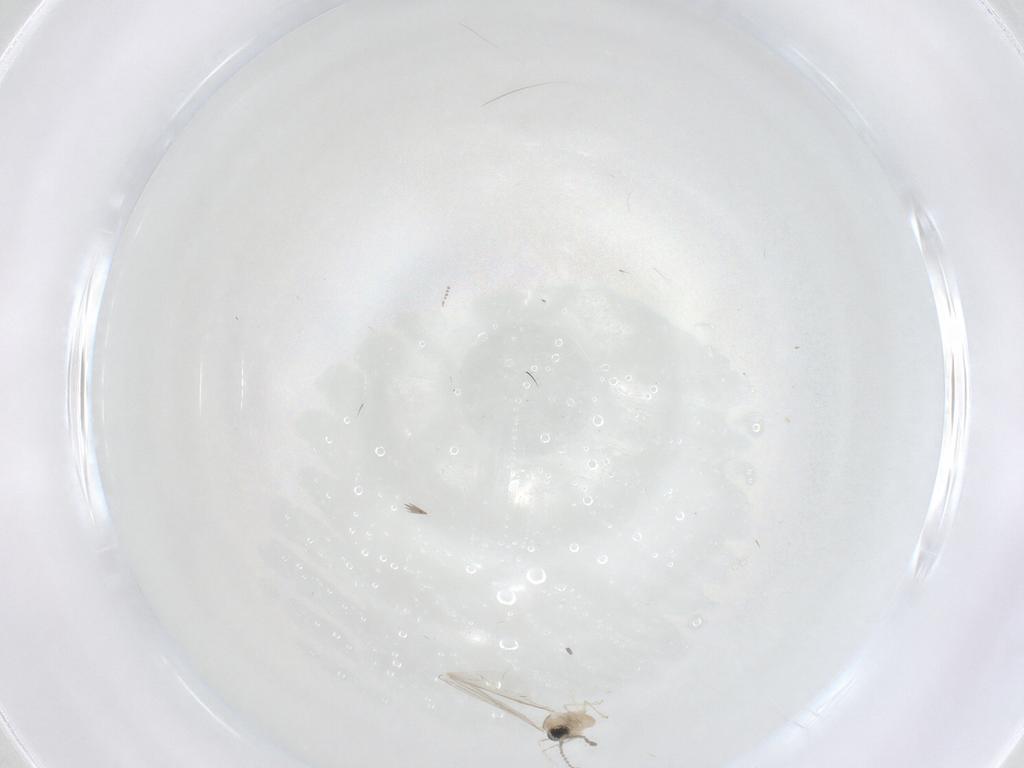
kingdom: Animalia
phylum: Arthropoda
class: Insecta
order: Diptera
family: Cecidomyiidae
